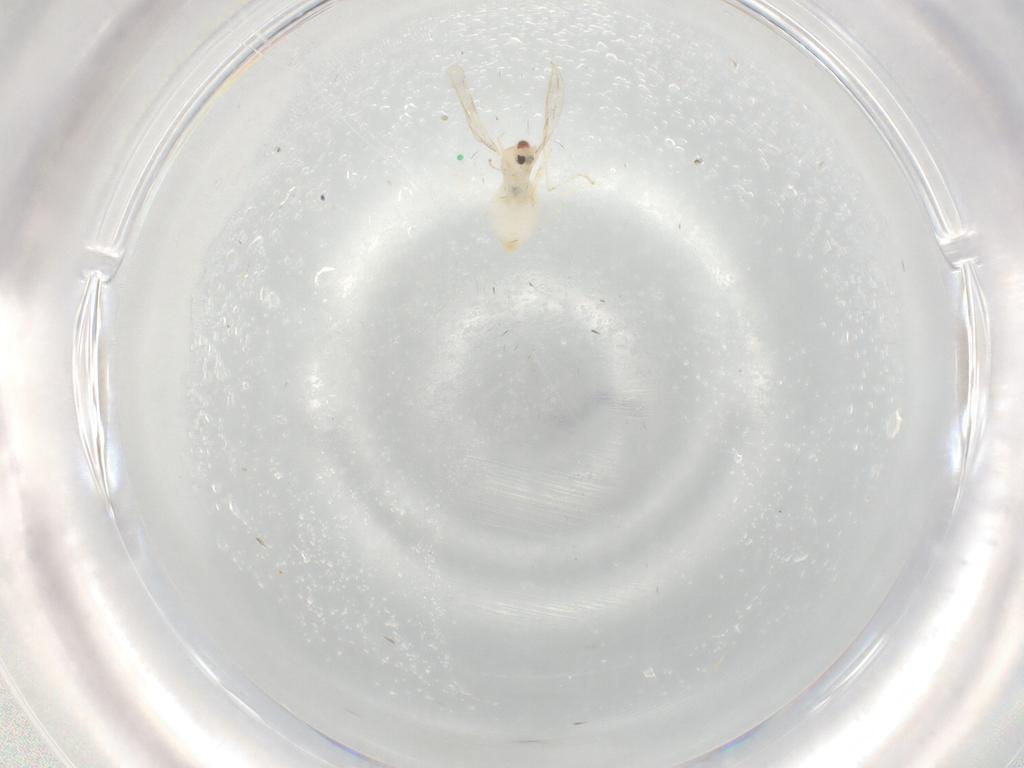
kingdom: Animalia
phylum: Arthropoda
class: Insecta
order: Diptera
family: Cecidomyiidae
